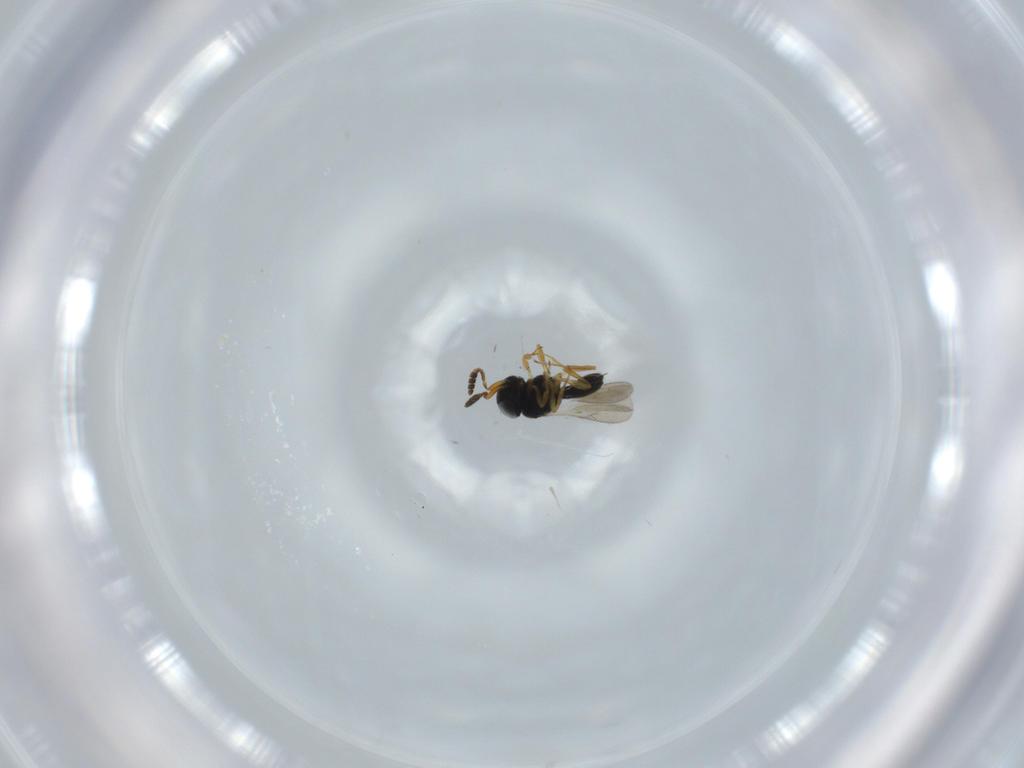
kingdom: Animalia
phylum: Arthropoda
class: Insecta
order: Hymenoptera
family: Scelionidae
